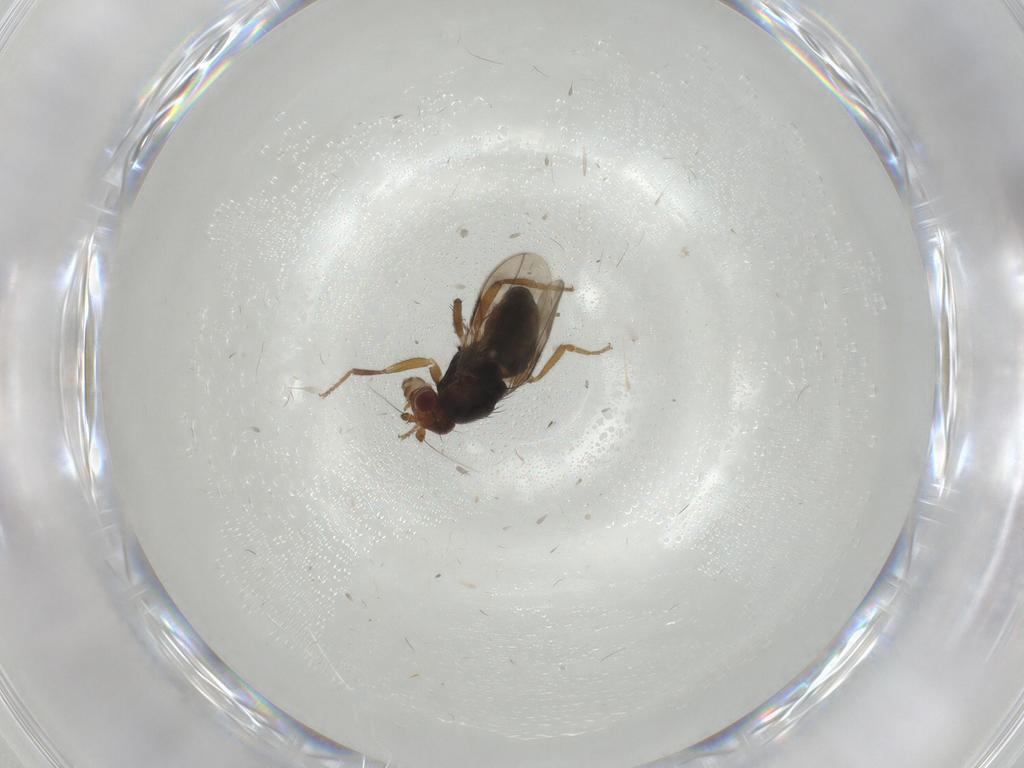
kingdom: Animalia
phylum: Arthropoda
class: Insecta
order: Diptera
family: Sphaeroceridae
